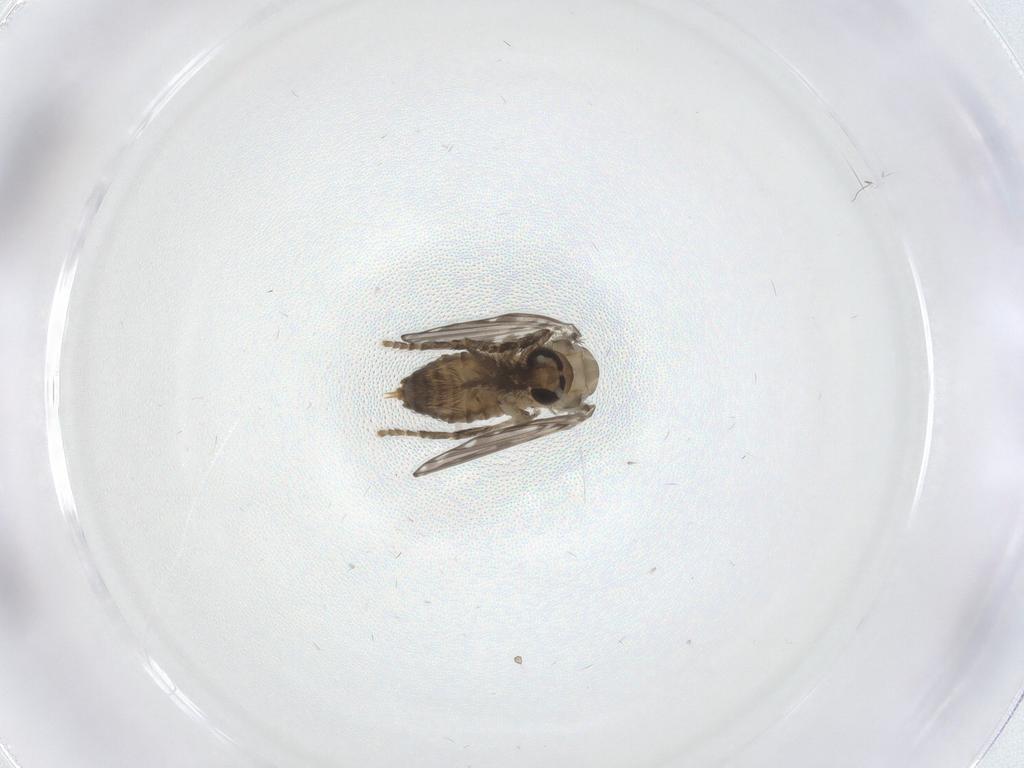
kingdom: Animalia
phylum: Arthropoda
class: Insecta
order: Diptera
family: Psychodidae
